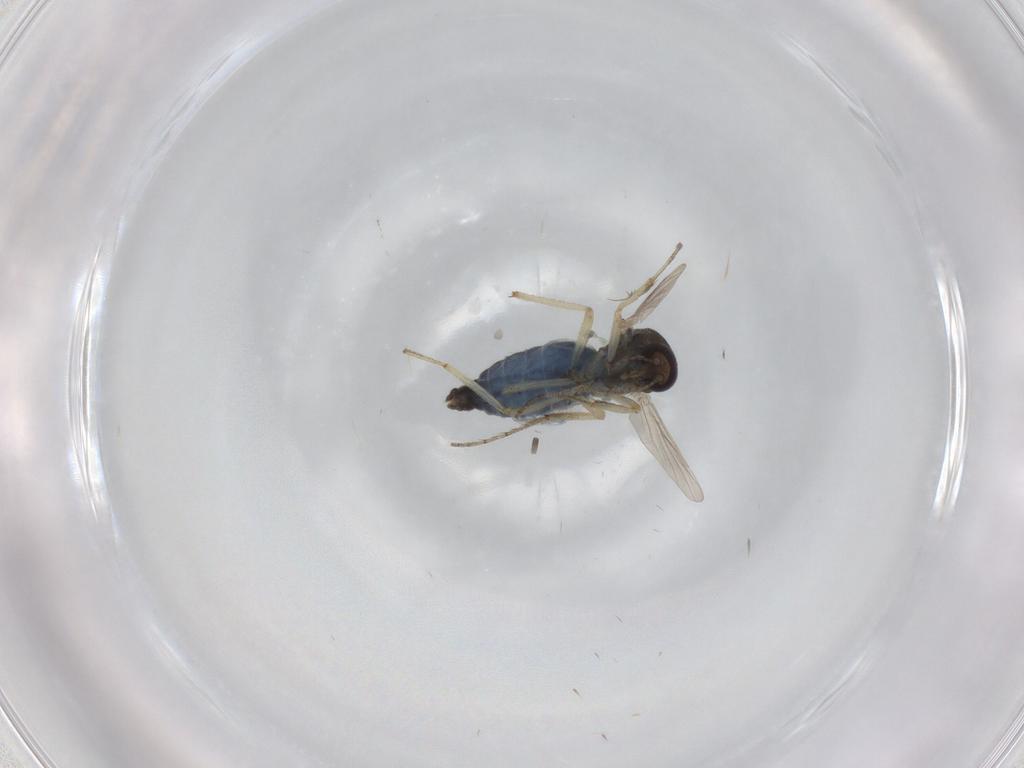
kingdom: Animalia
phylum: Arthropoda
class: Insecta
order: Diptera
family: Ceratopogonidae
